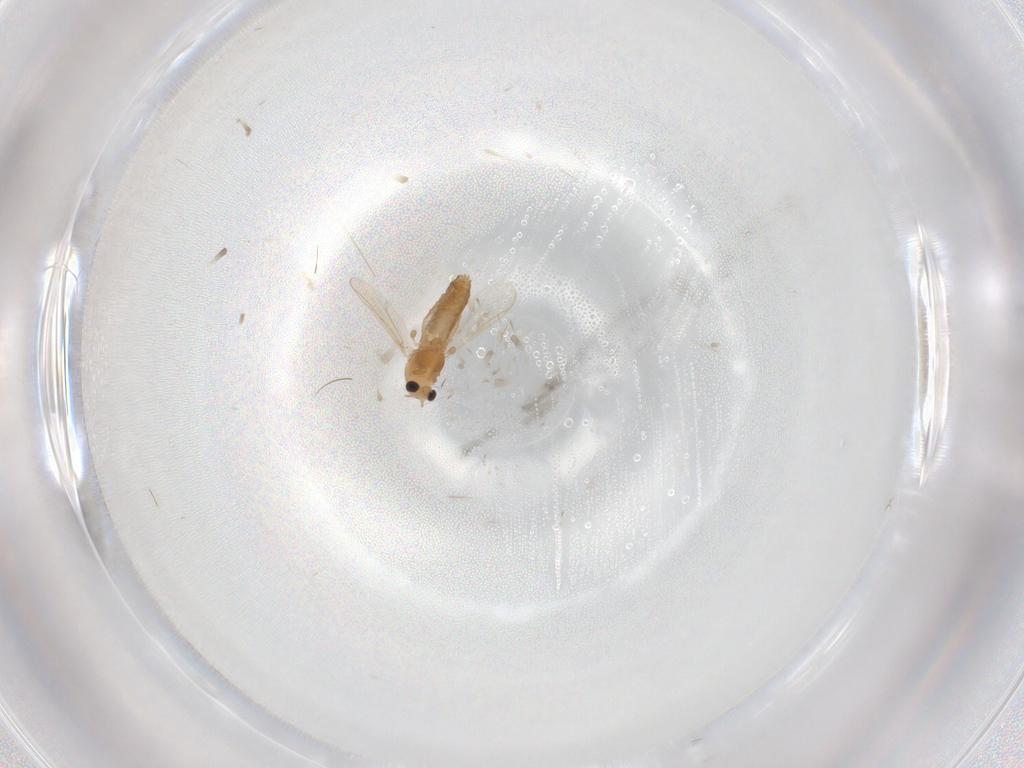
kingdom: Animalia
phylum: Arthropoda
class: Insecta
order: Diptera
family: Chironomidae
